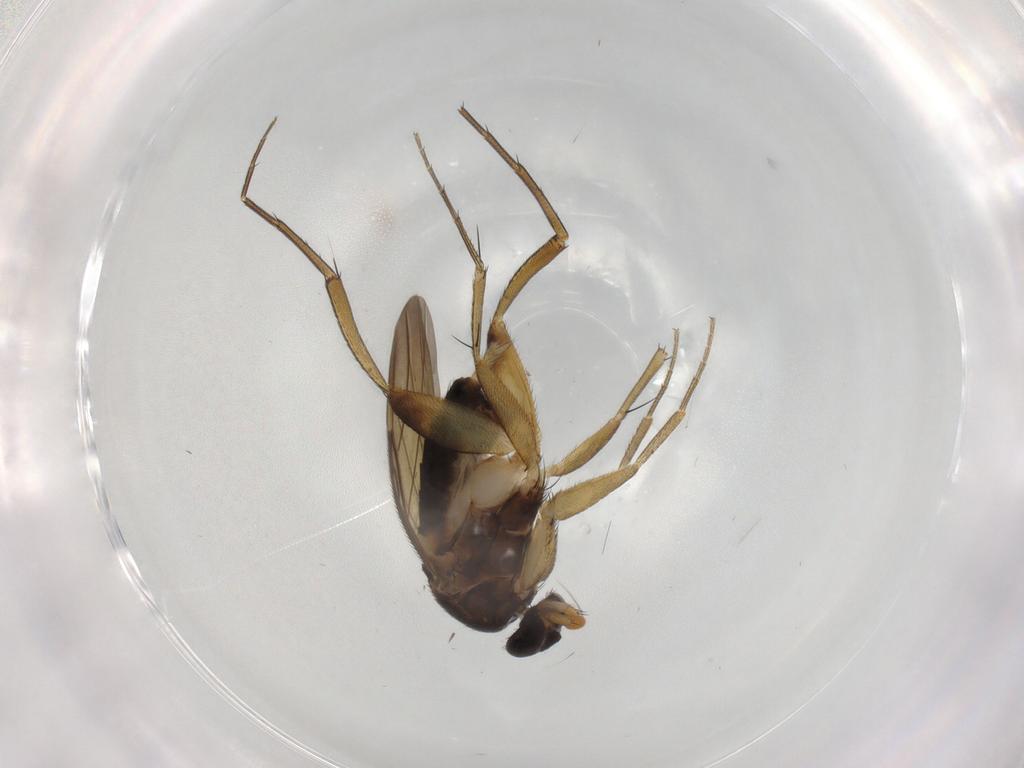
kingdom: Animalia
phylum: Arthropoda
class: Insecta
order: Diptera
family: Phoridae
